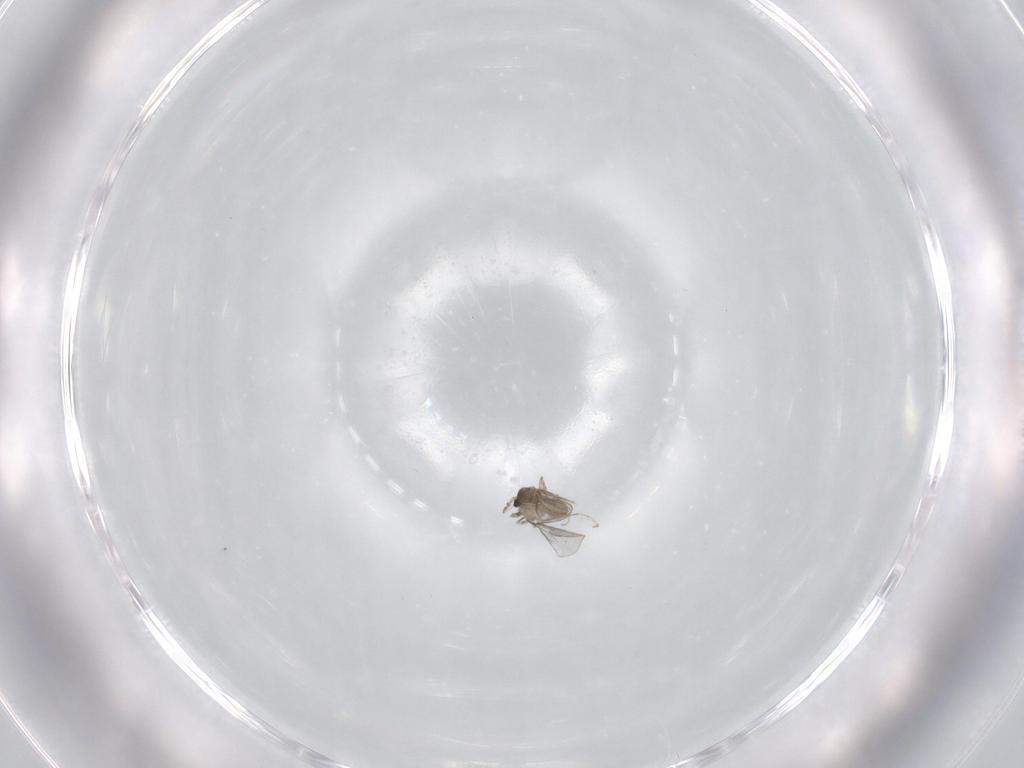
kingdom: Animalia
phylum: Arthropoda
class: Insecta
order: Diptera
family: Cecidomyiidae
